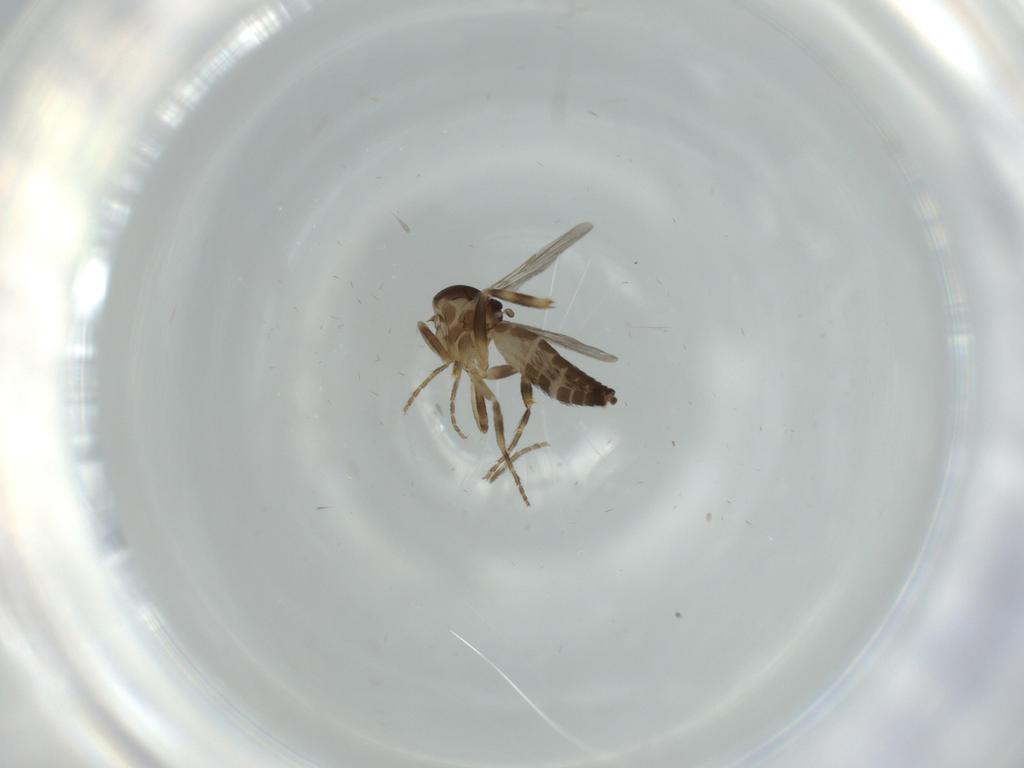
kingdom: Animalia
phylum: Arthropoda
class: Insecta
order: Diptera
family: Ceratopogonidae
